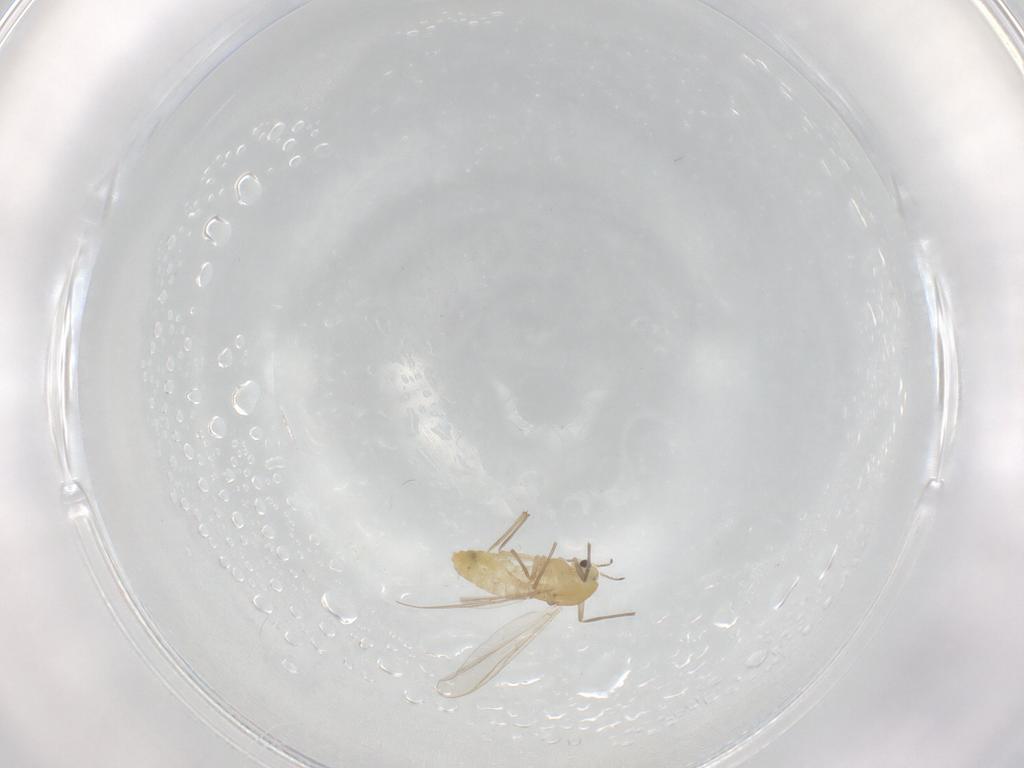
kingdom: Animalia
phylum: Arthropoda
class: Insecta
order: Diptera
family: Chironomidae
